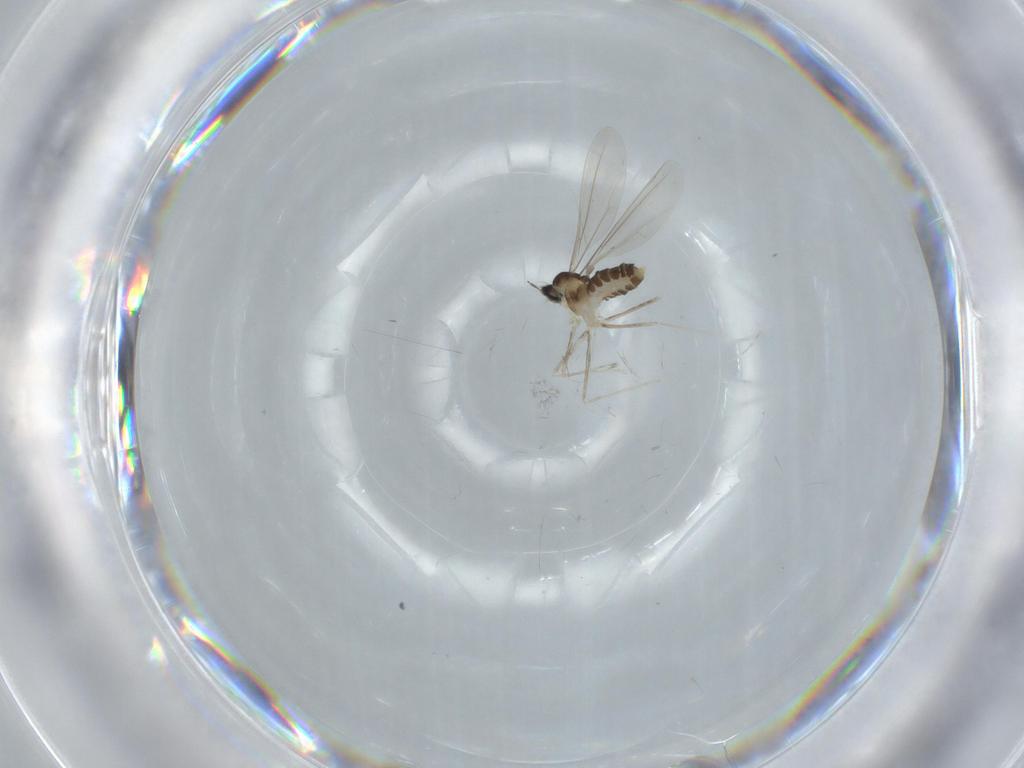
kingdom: Animalia
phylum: Arthropoda
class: Insecta
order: Diptera
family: Cecidomyiidae
